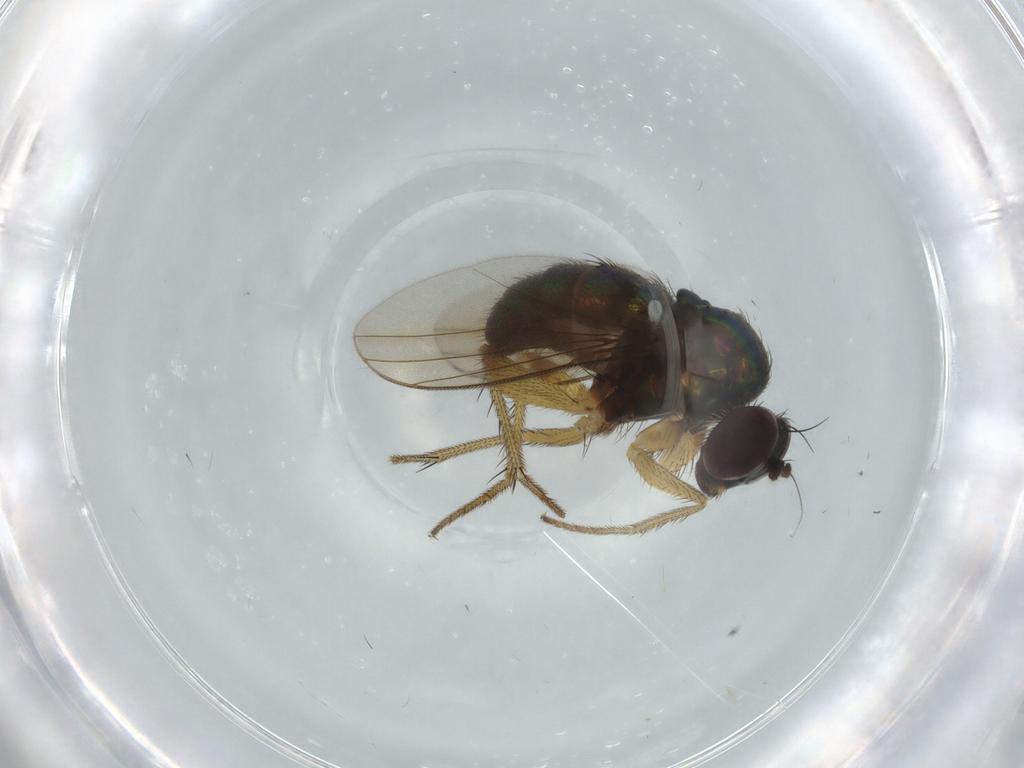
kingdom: Animalia
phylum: Arthropoda
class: Insecta
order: Diptera
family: Dolichopodidae
